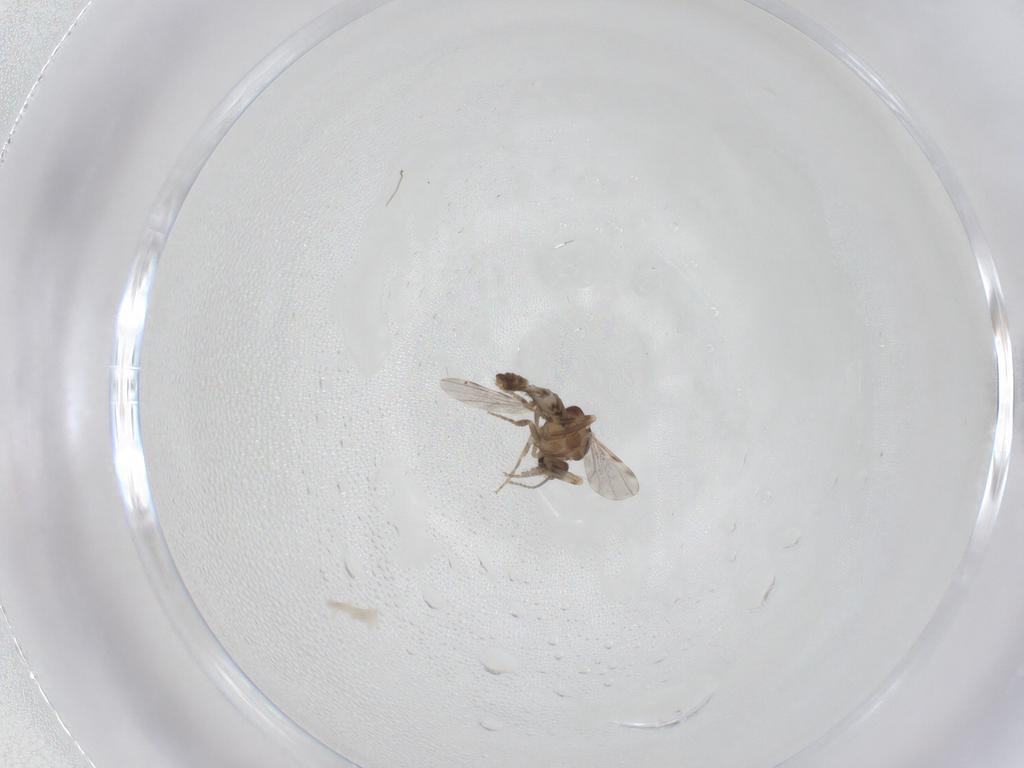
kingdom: Animalia
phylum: Arthropoda
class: Insecta
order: Diptera
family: Ceratopogonidae
